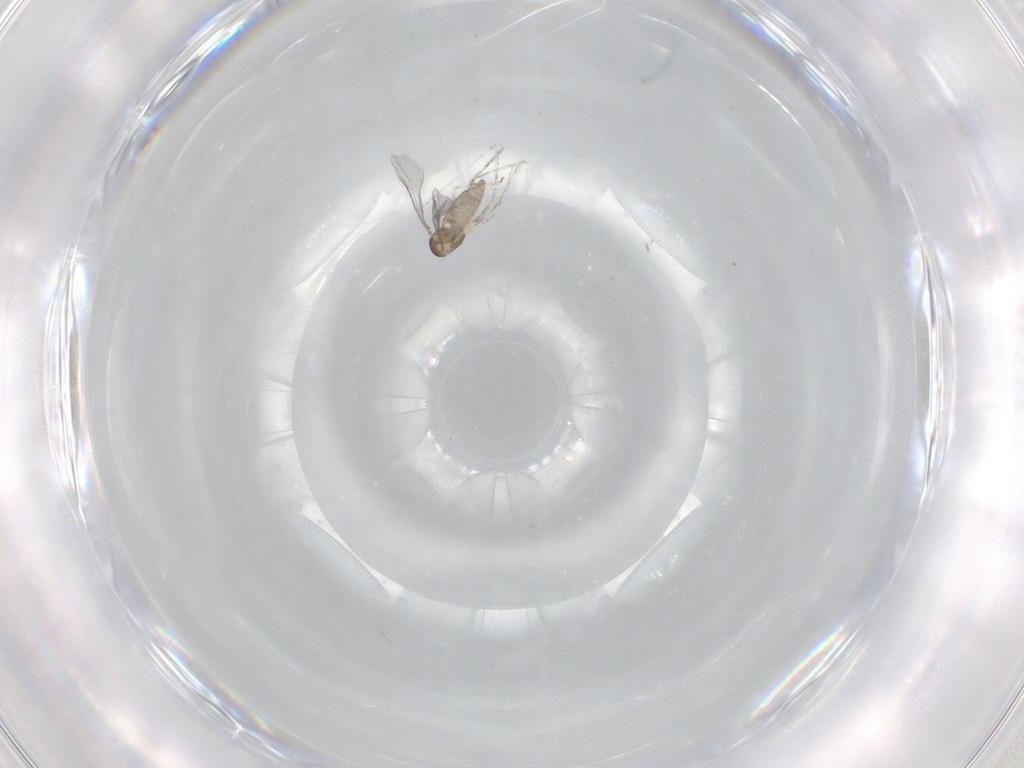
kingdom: Animalia
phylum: Arthropoda
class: Insecta
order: Diptera
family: Cecidomyiidae
